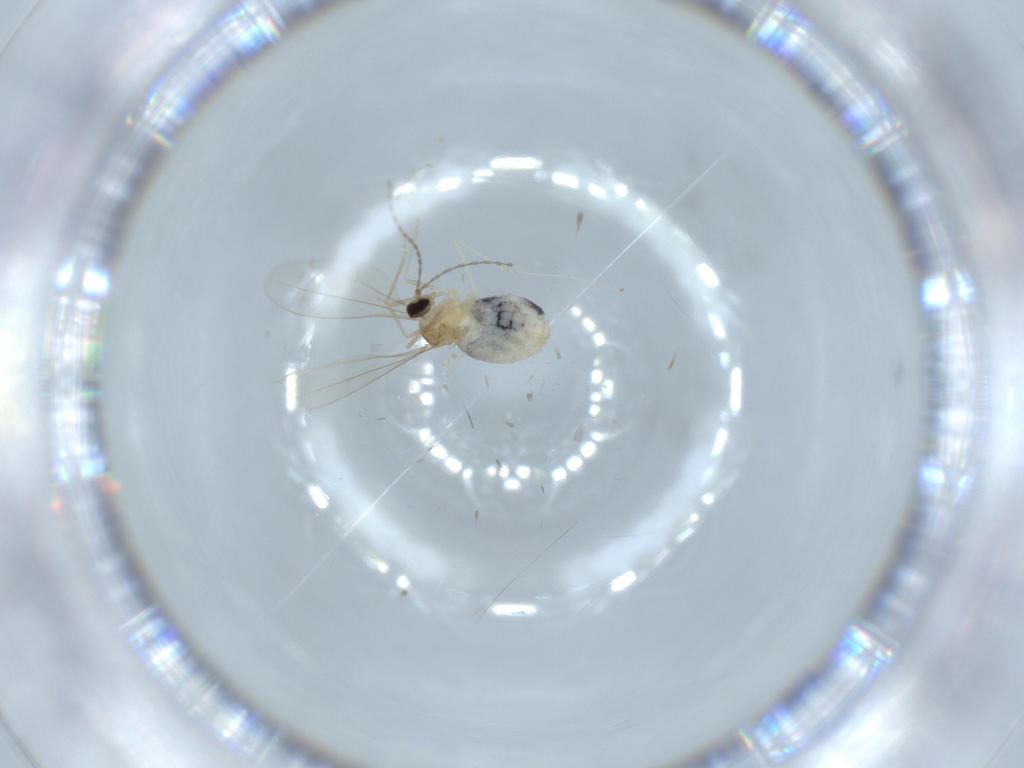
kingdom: Animalia
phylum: Arthropoda
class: Insecta
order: Diptera
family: Cecidomyiidae
